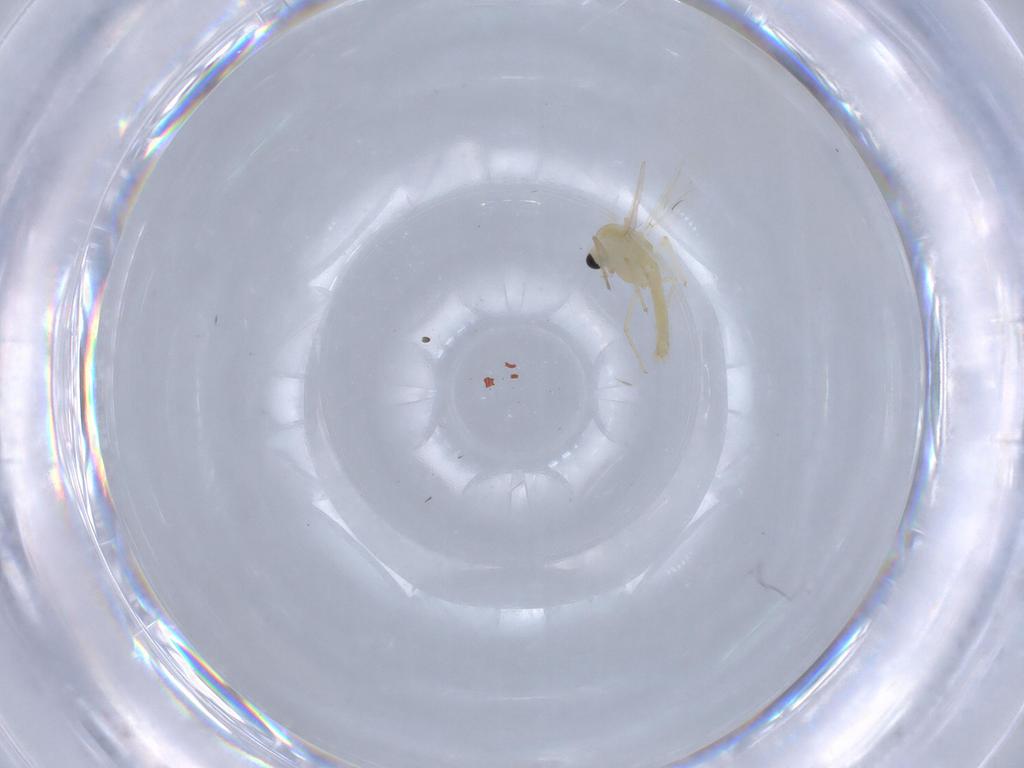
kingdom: Animalia
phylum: Arthropoda
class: Insecta
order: Diptera
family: Chironomidae
